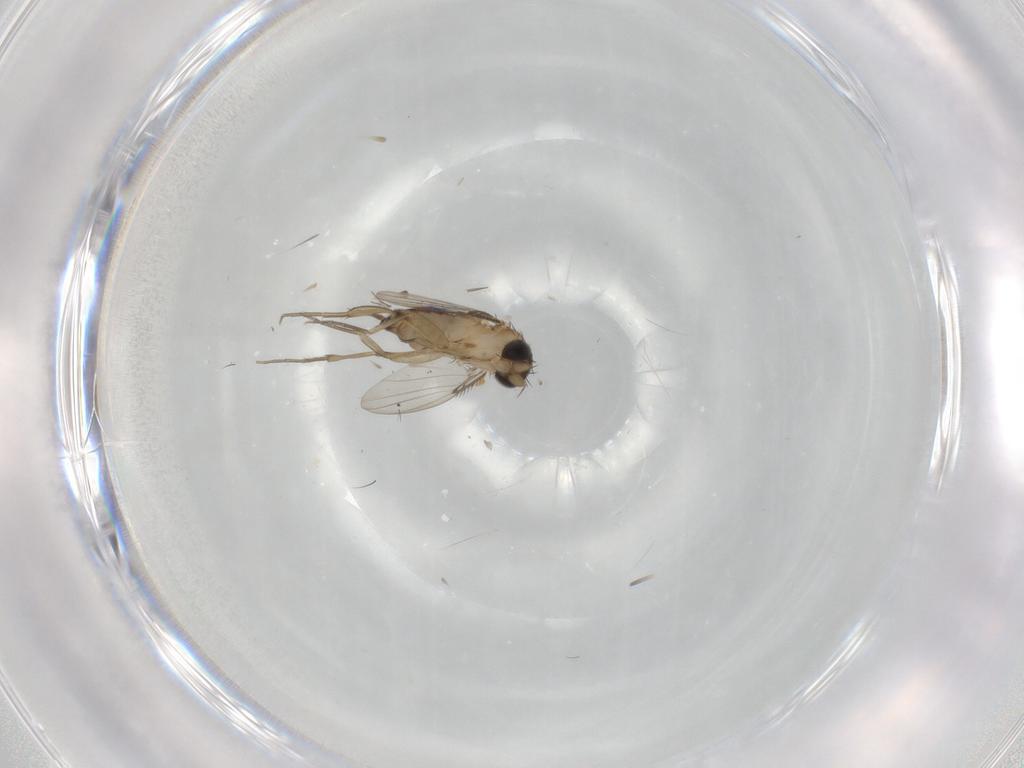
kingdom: Animalia
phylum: Arthropoda
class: Insecta
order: Diptera
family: Phoridae
